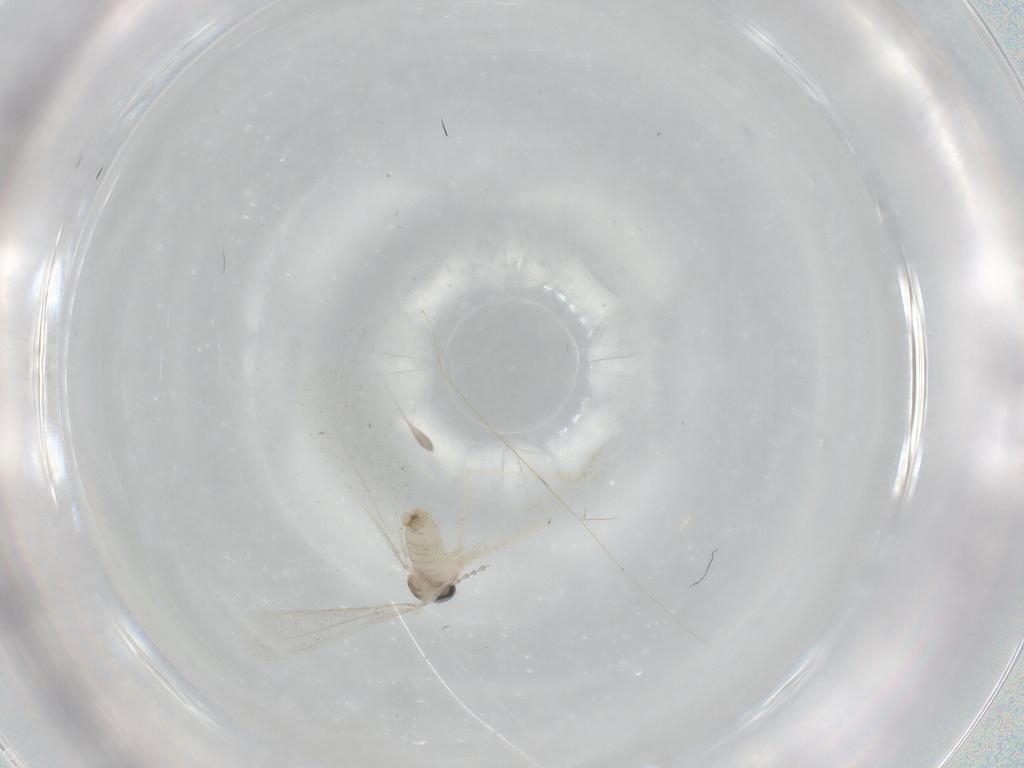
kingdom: Animalia
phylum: Arthropoda
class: Insecta
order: Diptera
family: Cecidomyiidae
